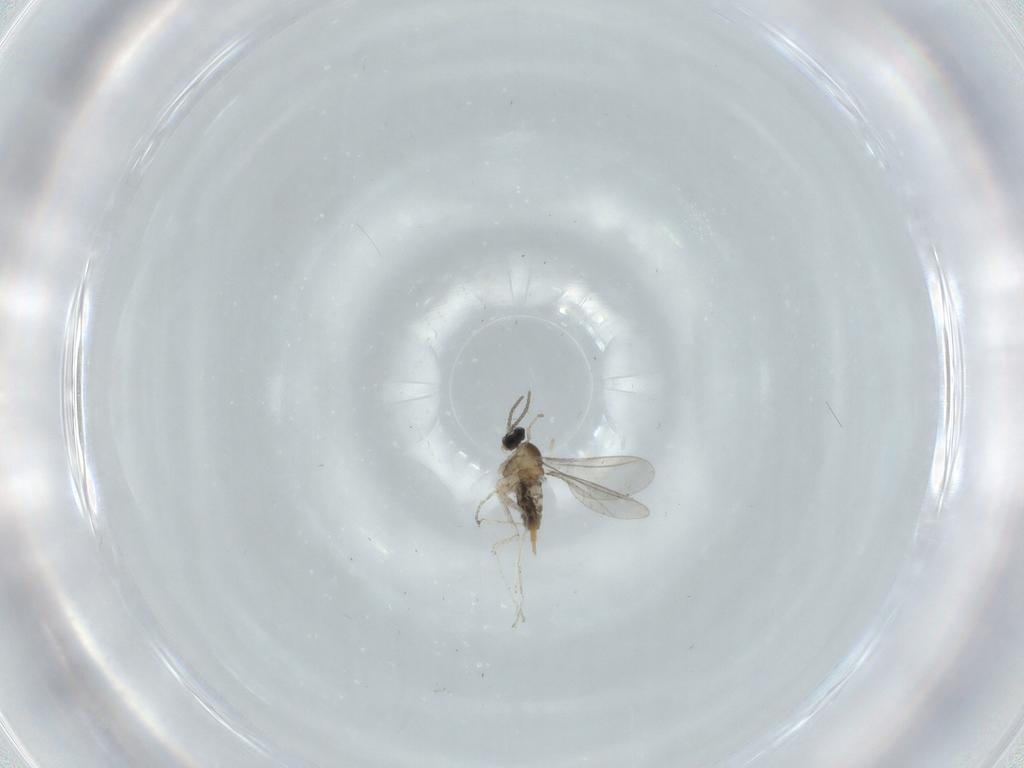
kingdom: Animalia
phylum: Arthropoda
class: Insecta
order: Diptera
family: Cecidomyiidae
